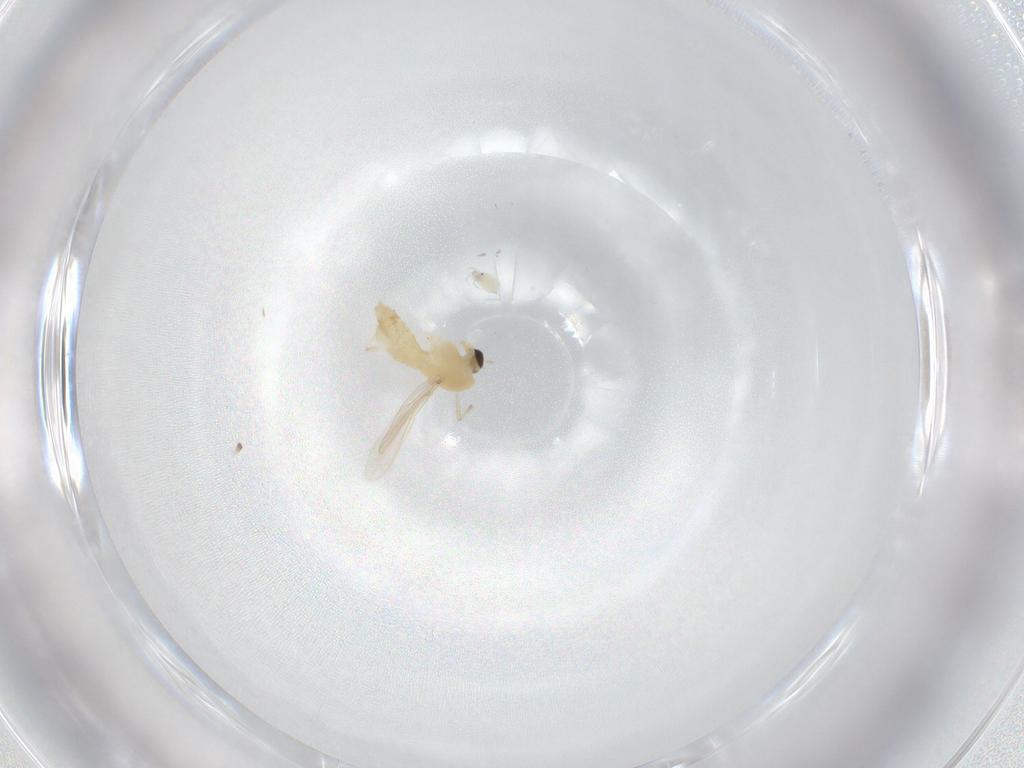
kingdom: Animalia
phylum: Arthropoda
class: Insecta
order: Diptera
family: Chironomidae
